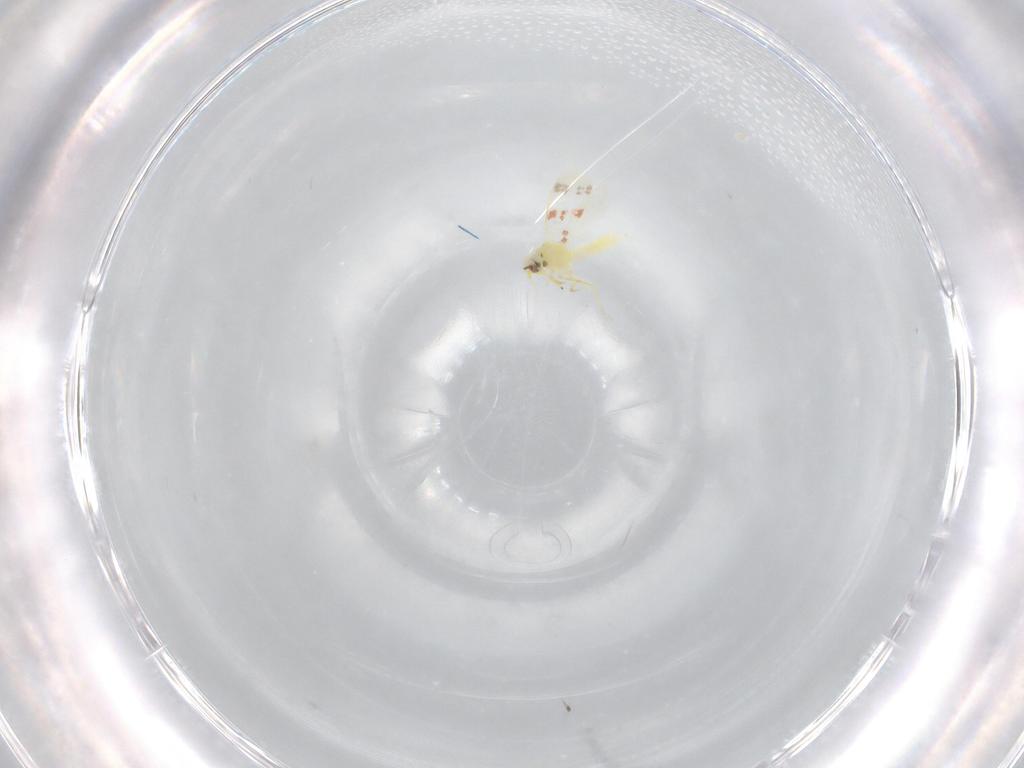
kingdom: Animalia
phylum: Arthropoda
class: Insecta
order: Hemiptera
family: Aleyrodidae
